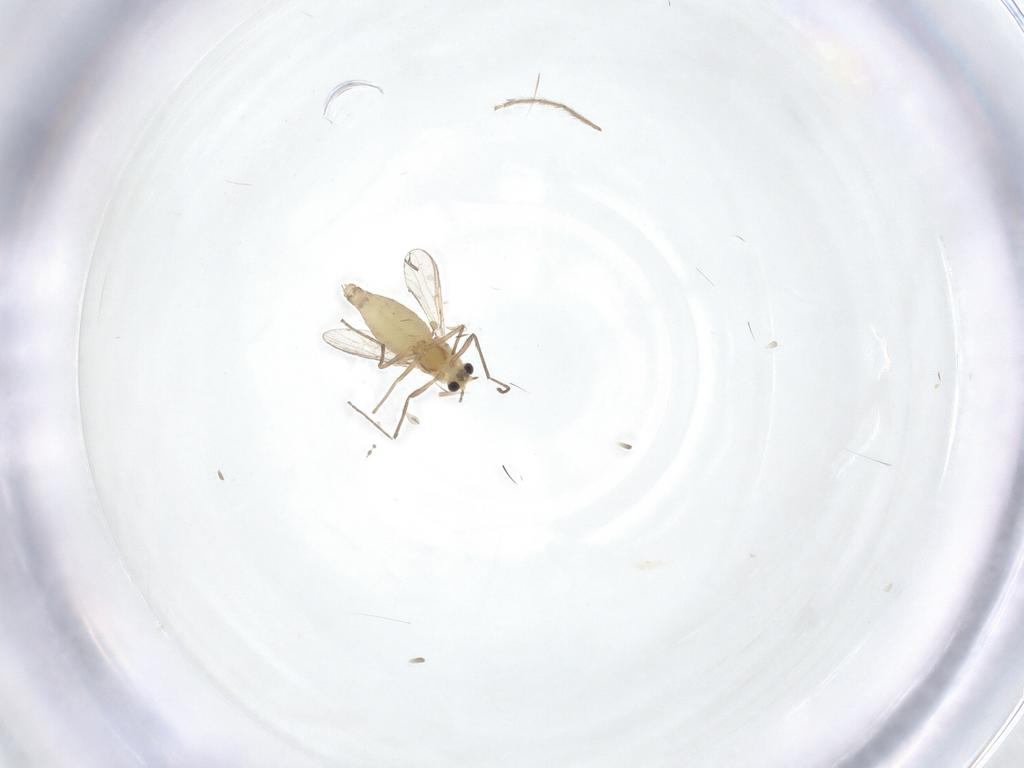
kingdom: Animalia
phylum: Arthropoda
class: Insecta
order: Diptera
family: Chironomidae
